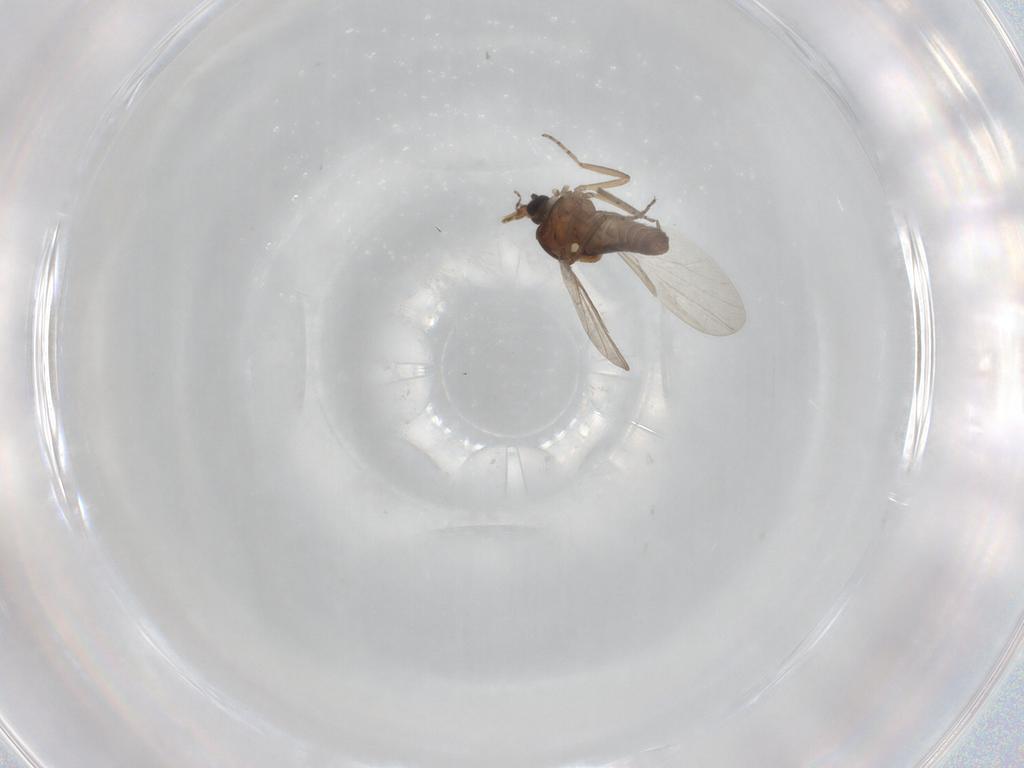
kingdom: Animalia
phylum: Arthropoda
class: Insecta
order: Diptera
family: Ceratopogonidae
